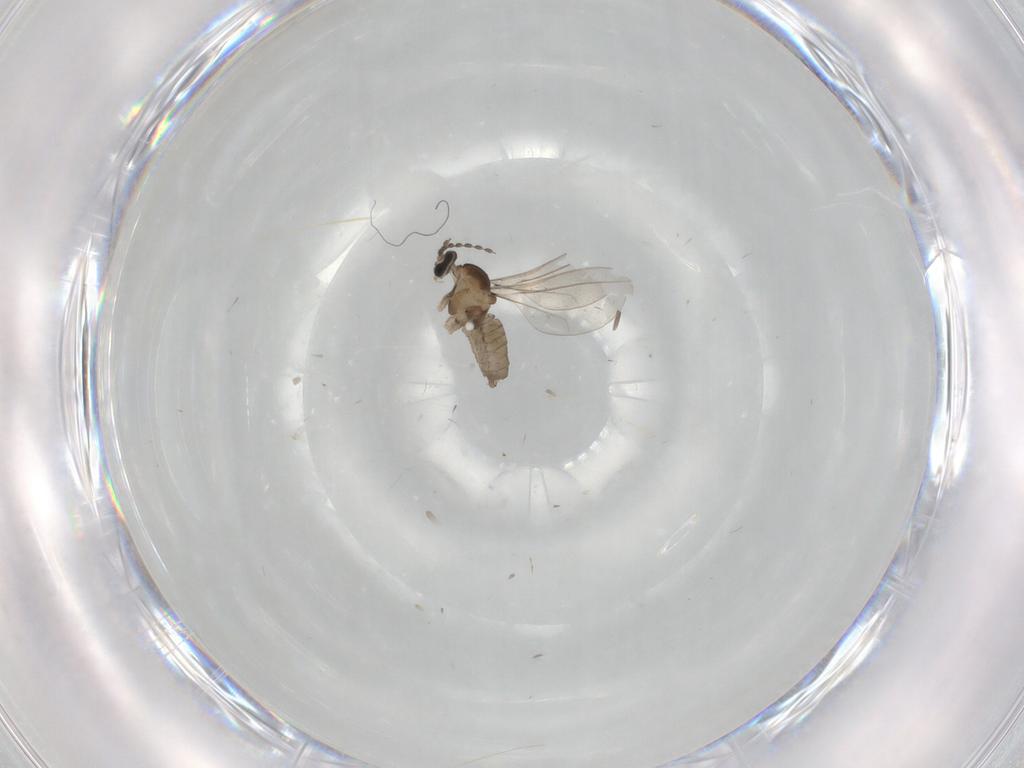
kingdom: Animalia
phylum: Arthropoda
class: Insecta
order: Diptera
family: Cecidomyiidae
